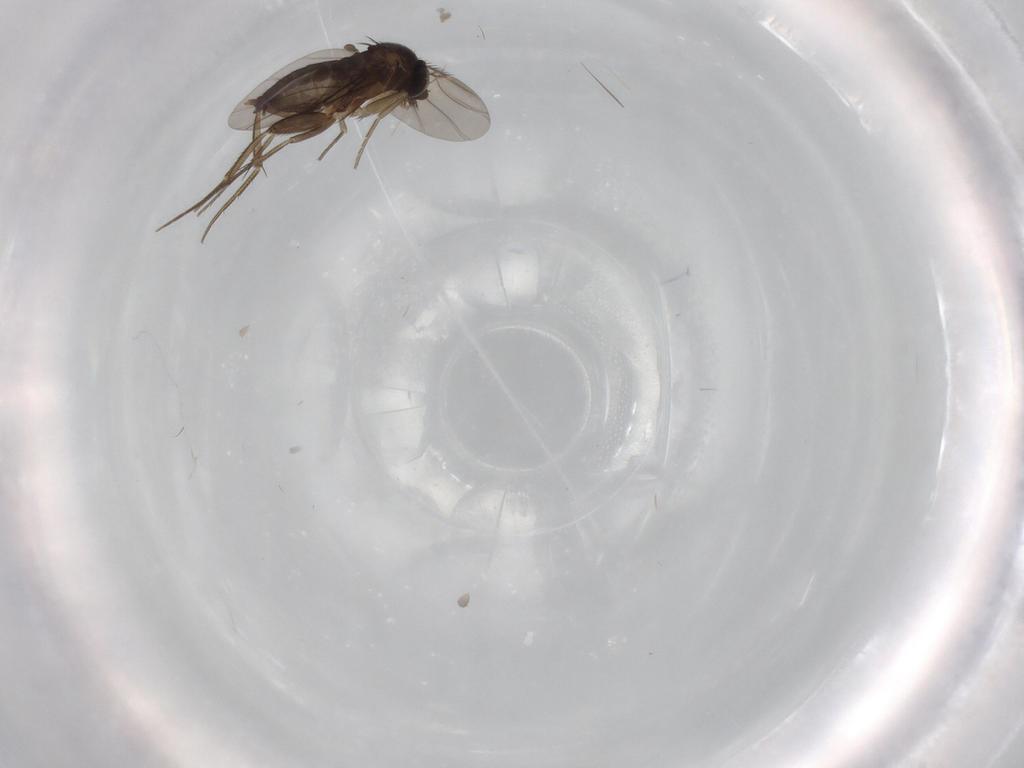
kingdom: Animalia
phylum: Arthropoda
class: Insecta
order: Diptera
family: Phoridae
